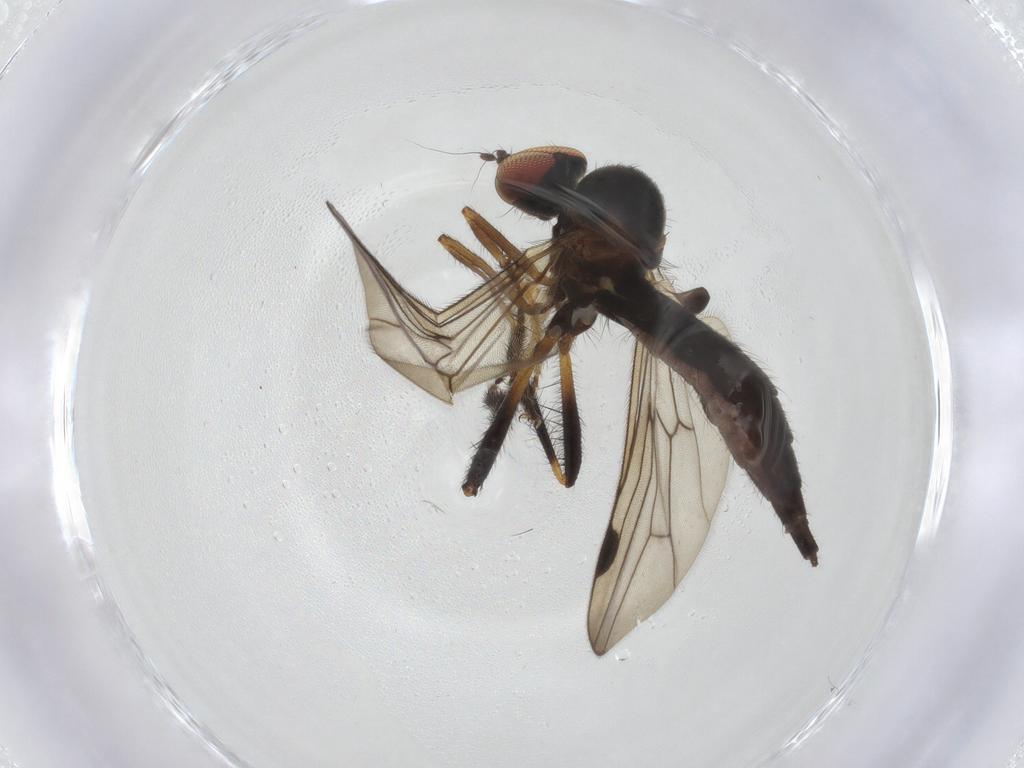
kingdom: Animalia
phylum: Arthropoda
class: Insecta
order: Diptera
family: Hybotidae
